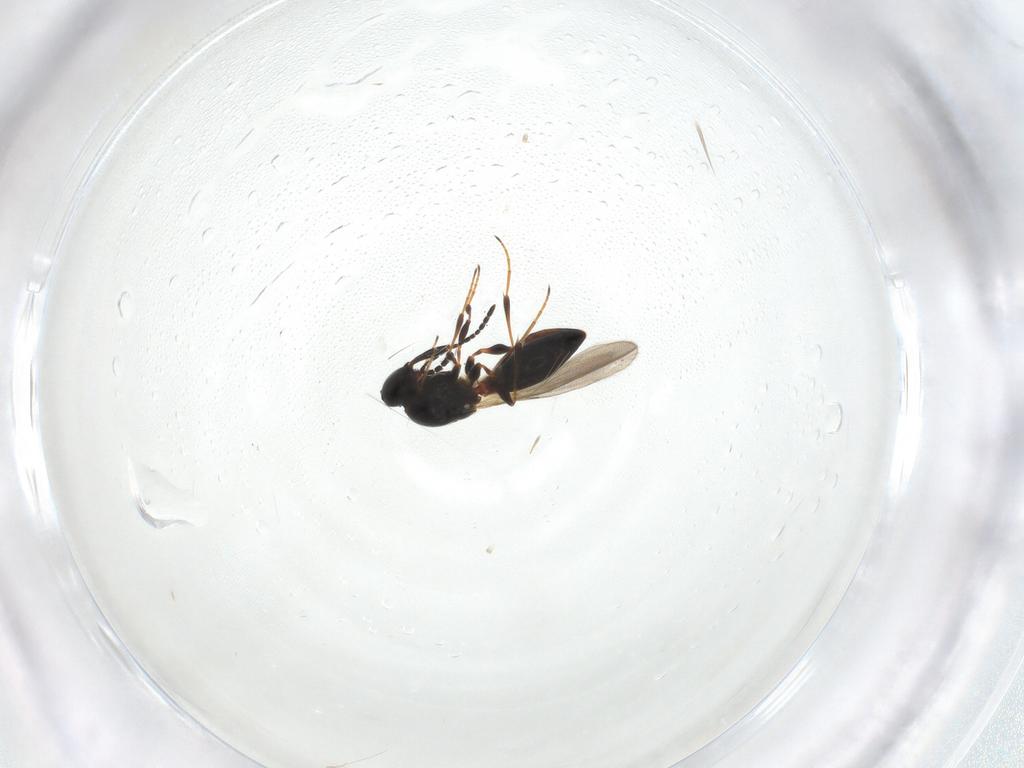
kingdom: Animalia
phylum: Arthropoda
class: Insecta
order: Hymenoptera
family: Platygastridae
